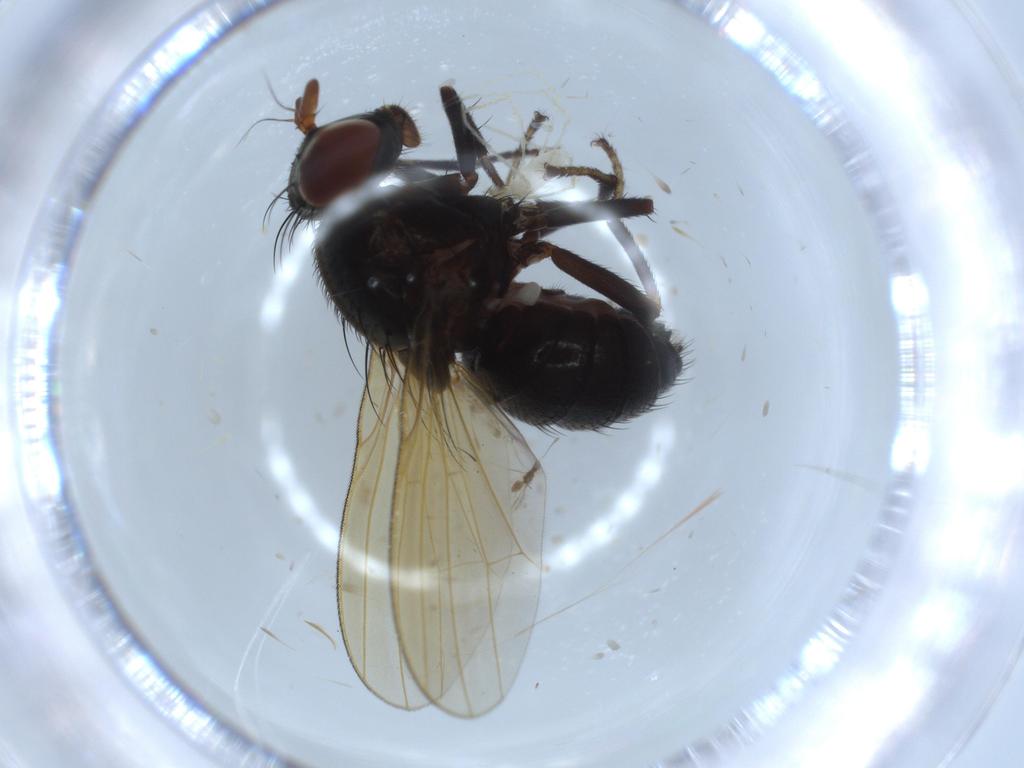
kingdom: Animalia
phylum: Arthropoda
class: Insecta
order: Diptera
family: Lauxaniidae
